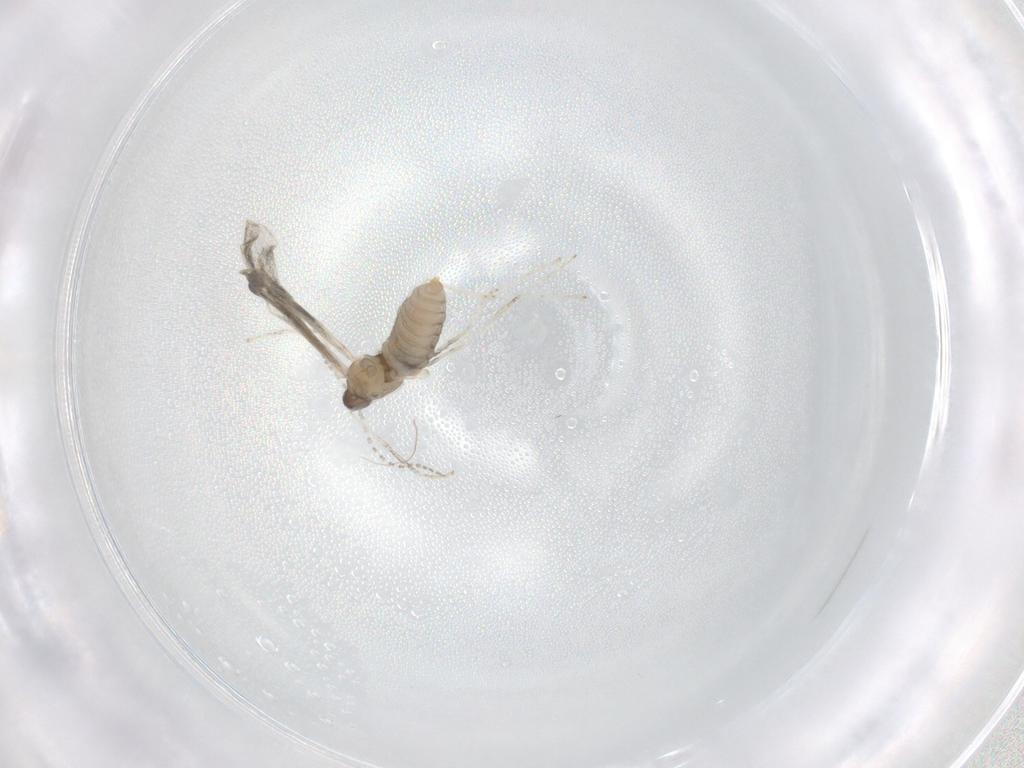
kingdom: Animalia
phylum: Arthropoda
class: Insecta
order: Diptera
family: Cecidomyiidae
